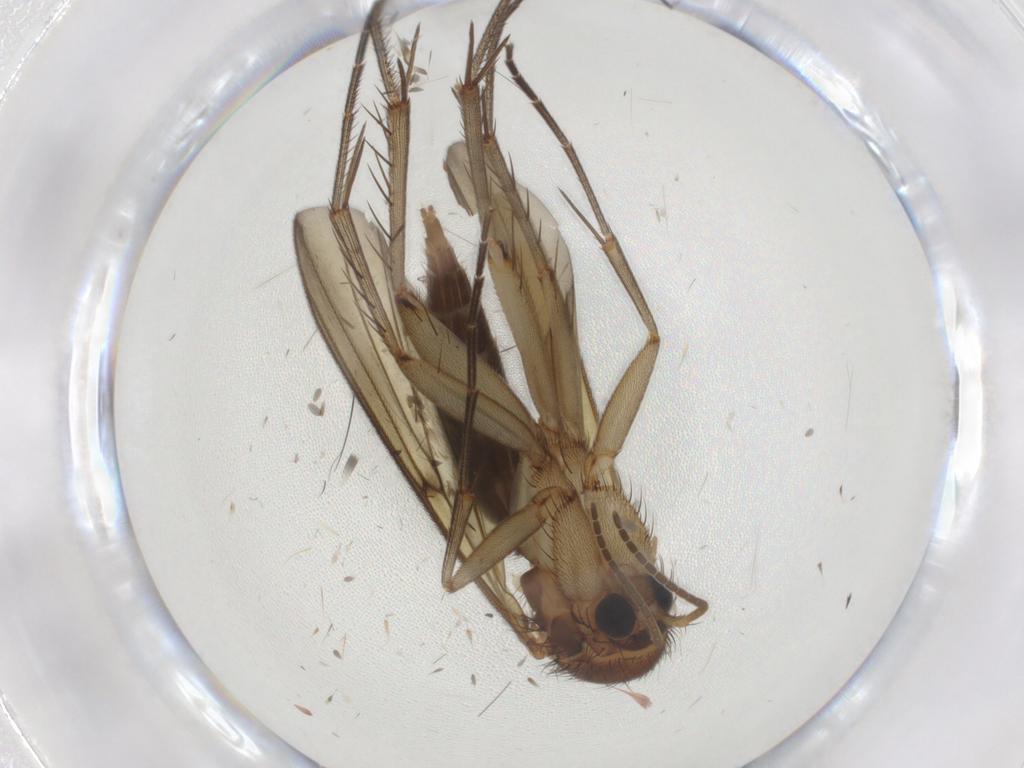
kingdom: Animalia
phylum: Arthropoda
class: Insecta
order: Diptera
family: Mycetophilidae
